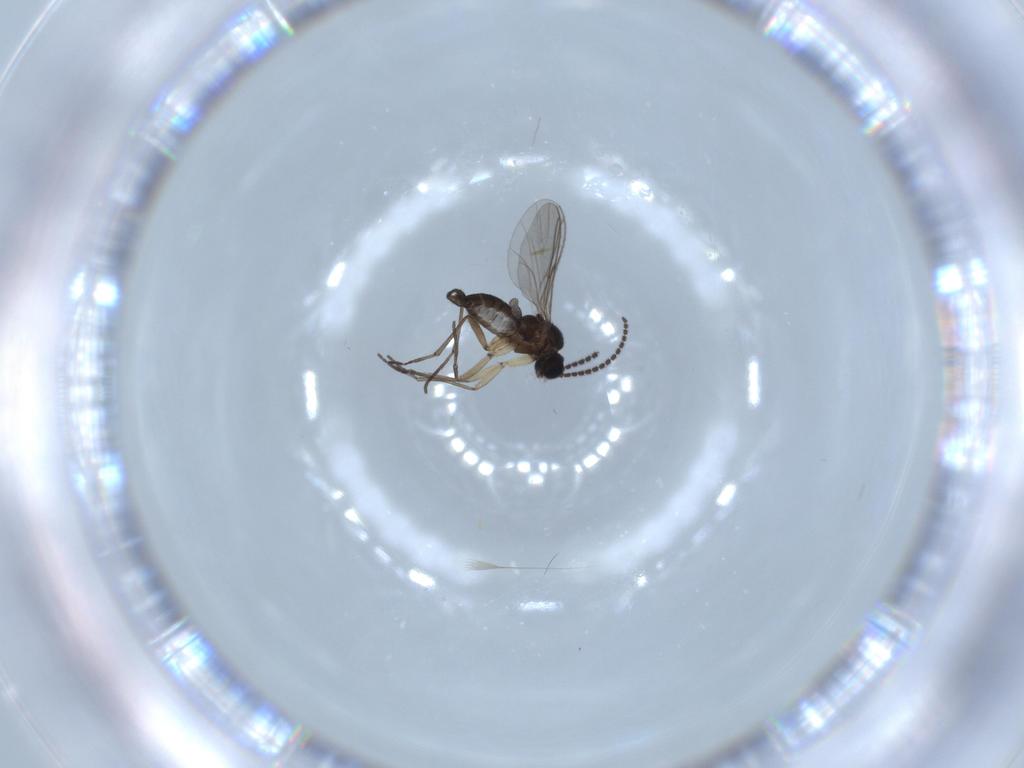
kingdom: Animalia
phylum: Arthropoda
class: Insecta
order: Diptera
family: Sciaridae
